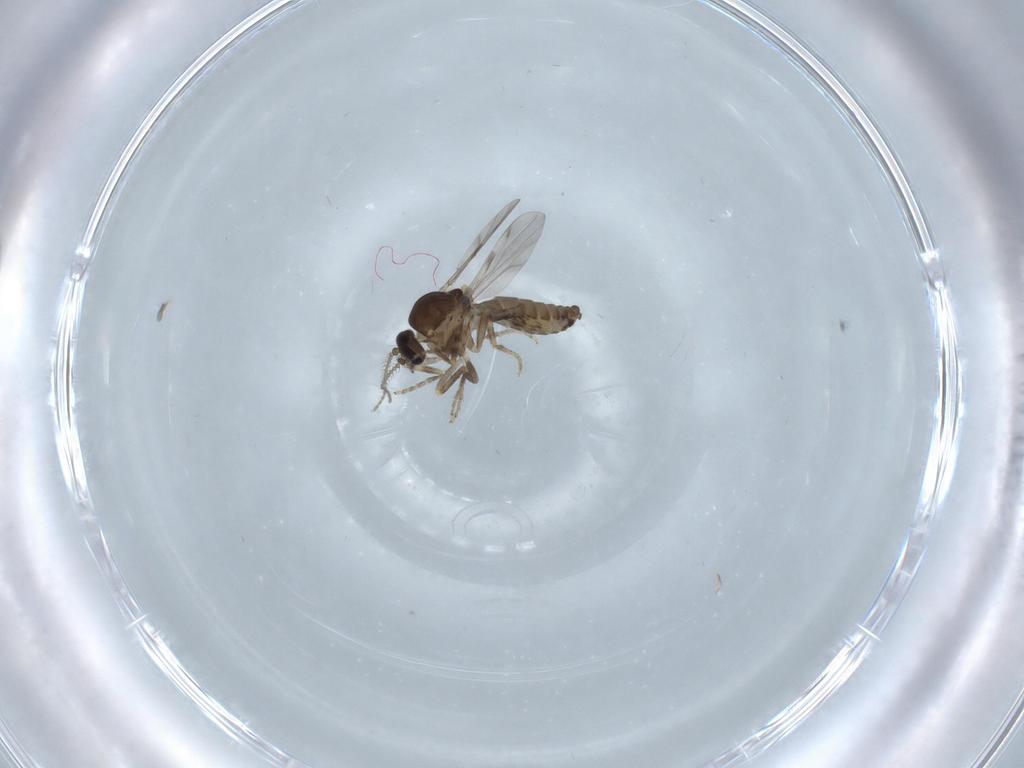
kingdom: Animalia
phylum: Arthropoda
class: Insecta
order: Diptera
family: Ceratopogonidae
